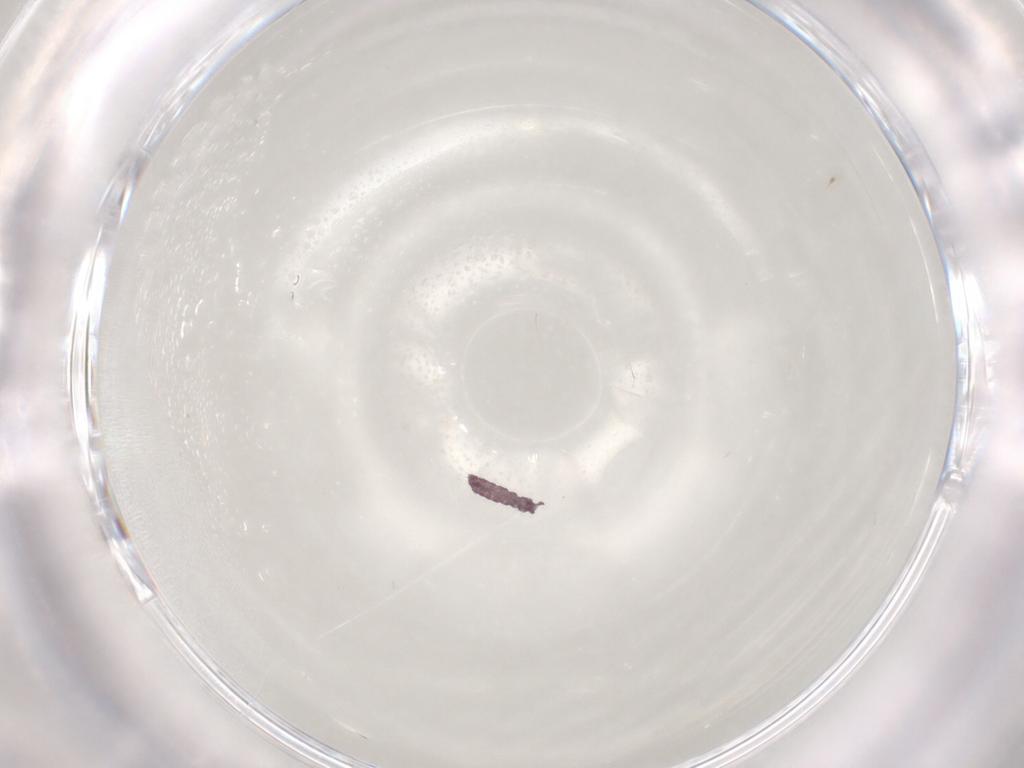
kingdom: Animalia
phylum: Arthropoda
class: Collembola
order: Poduromorpha
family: Hypogastruridae
